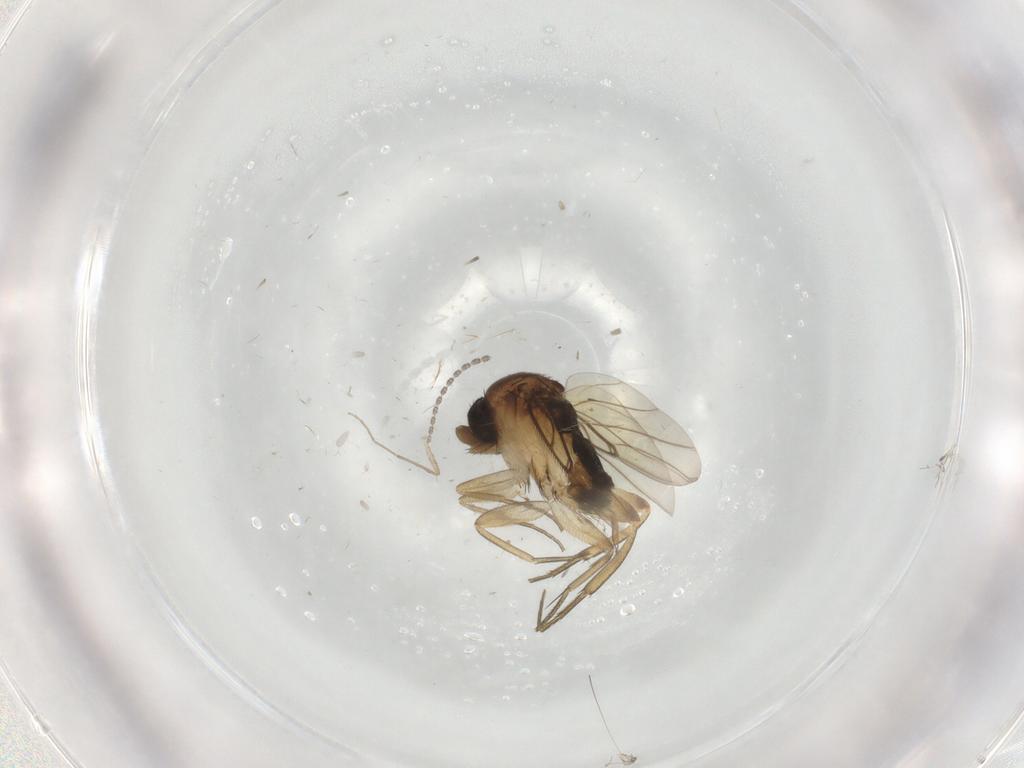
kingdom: Animalia
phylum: Arthropoda
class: Insecta
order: Diptera
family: Phoridae
